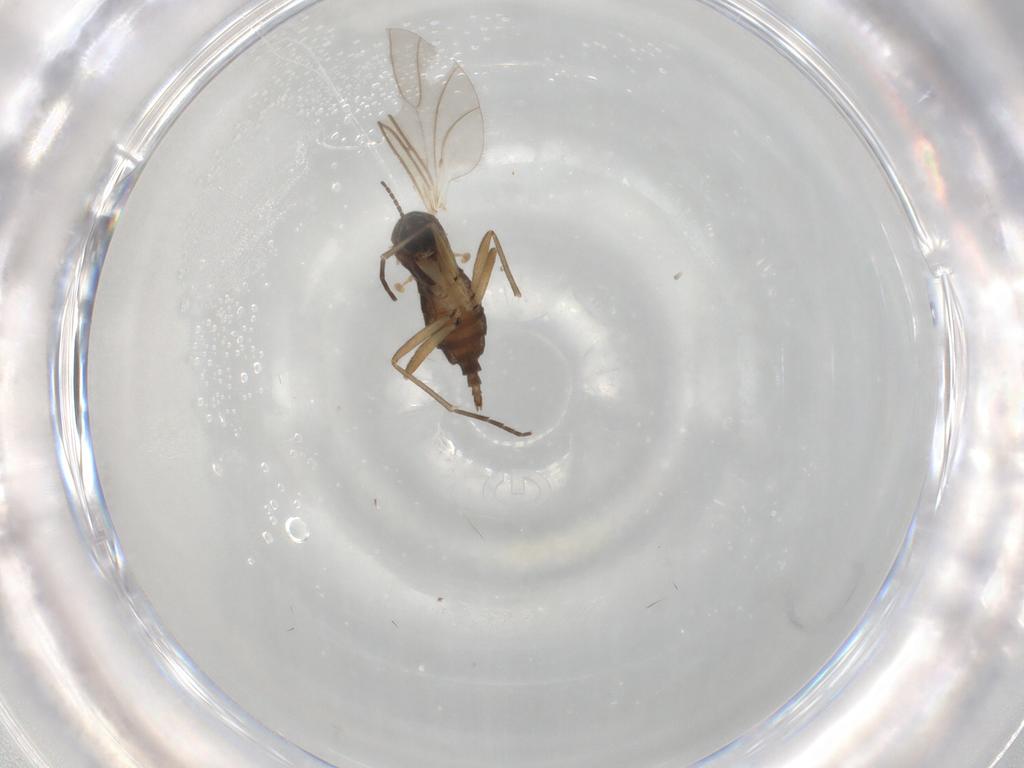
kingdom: Animalia
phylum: Arthropoda
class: Insecta
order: Diptera
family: Sciaridae
